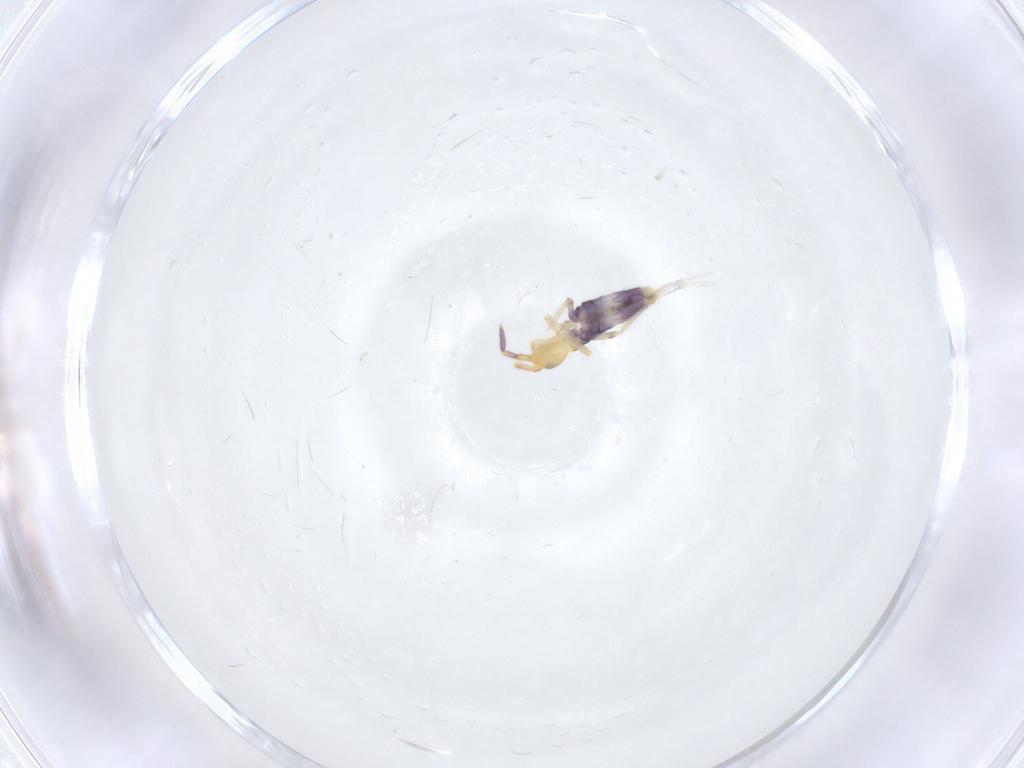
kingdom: Animalia
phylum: Arthropoda
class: Collembola
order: Entomobryomorpha
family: Entomobryidae
